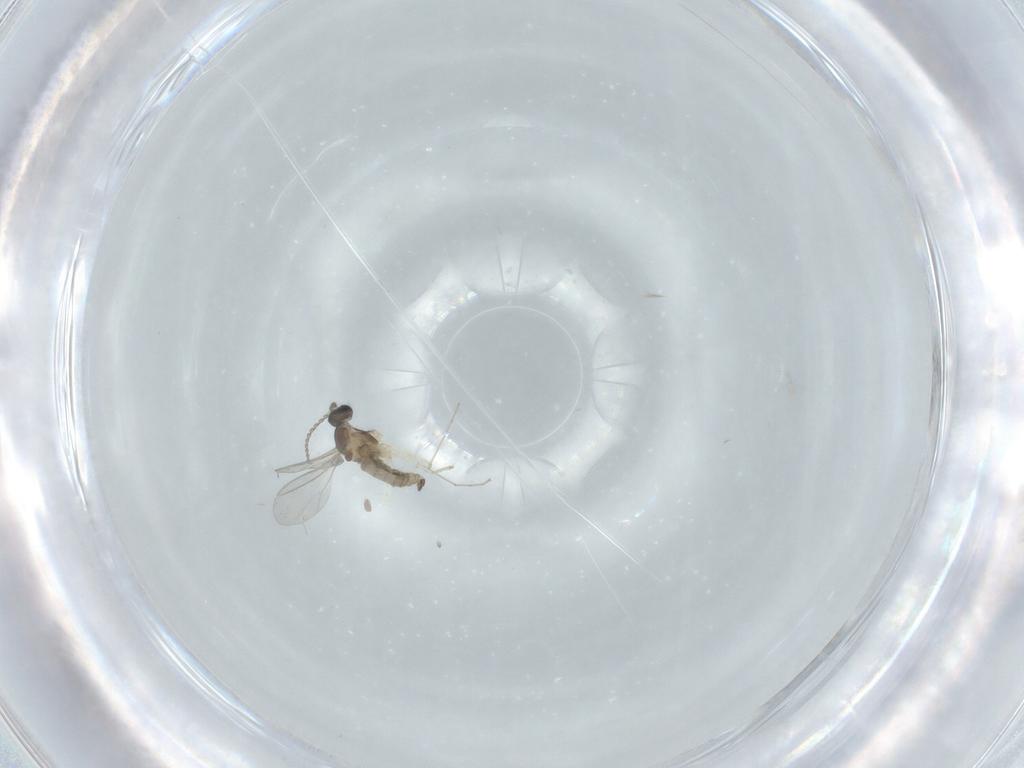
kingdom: Animalia
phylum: Arthropoda
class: Insecta
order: Diptera
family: Cecidomyiidae
